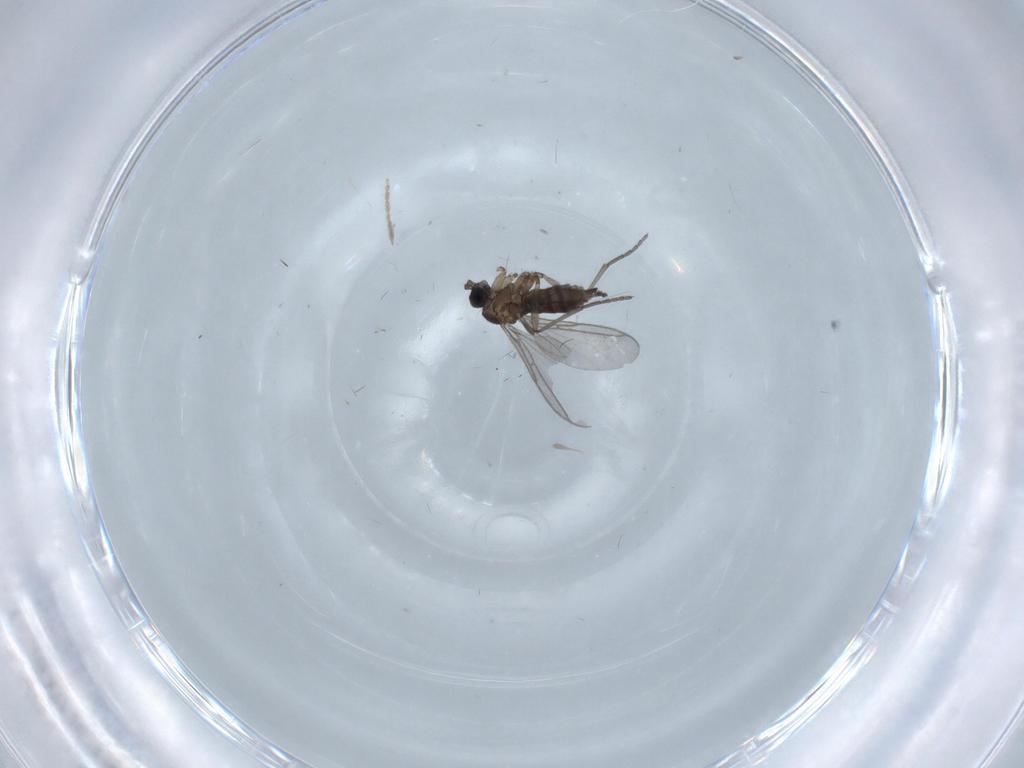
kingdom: Animalia
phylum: Arthropoda
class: Insecta
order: Diptera
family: Chironomidae
